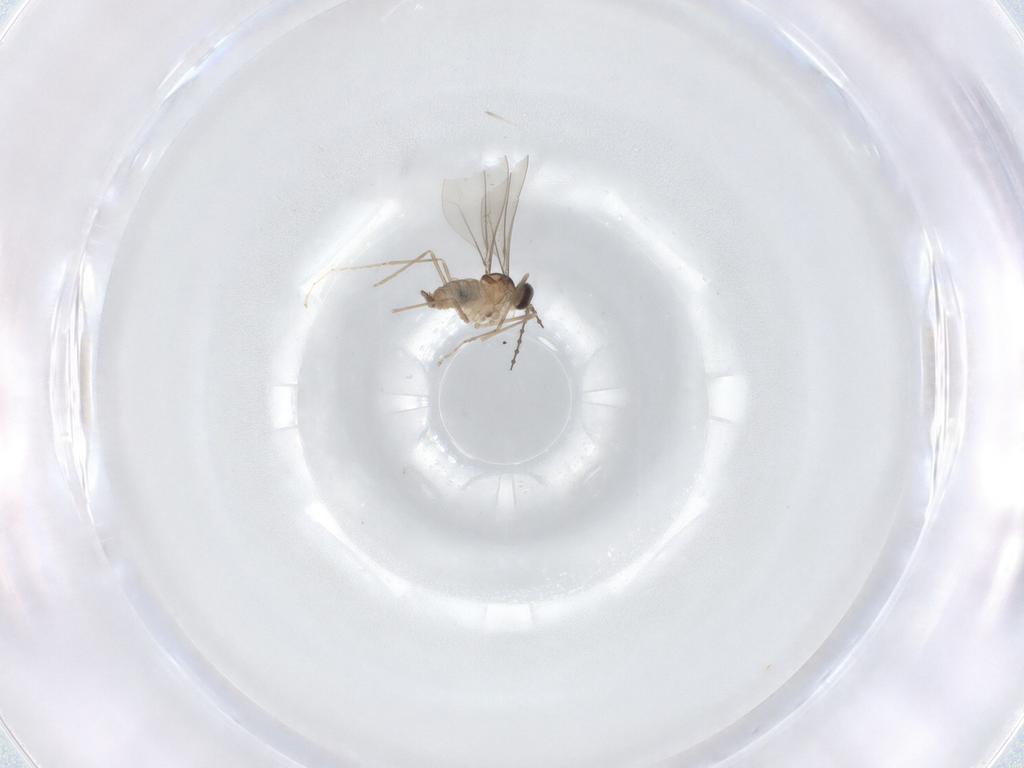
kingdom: Animalia
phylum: Arthropoda
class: Insecta
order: Diptera
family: Cecidomyiidae
